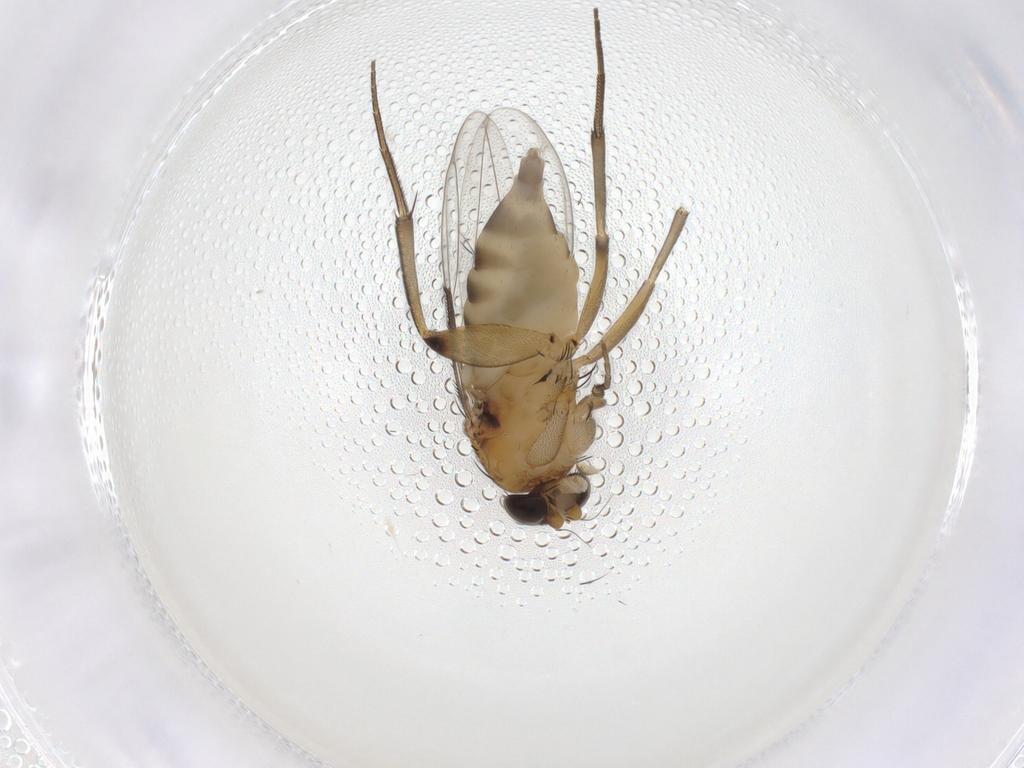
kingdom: Animalia
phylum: Arthropoda
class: Insecta
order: Diptera
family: Phoridae
